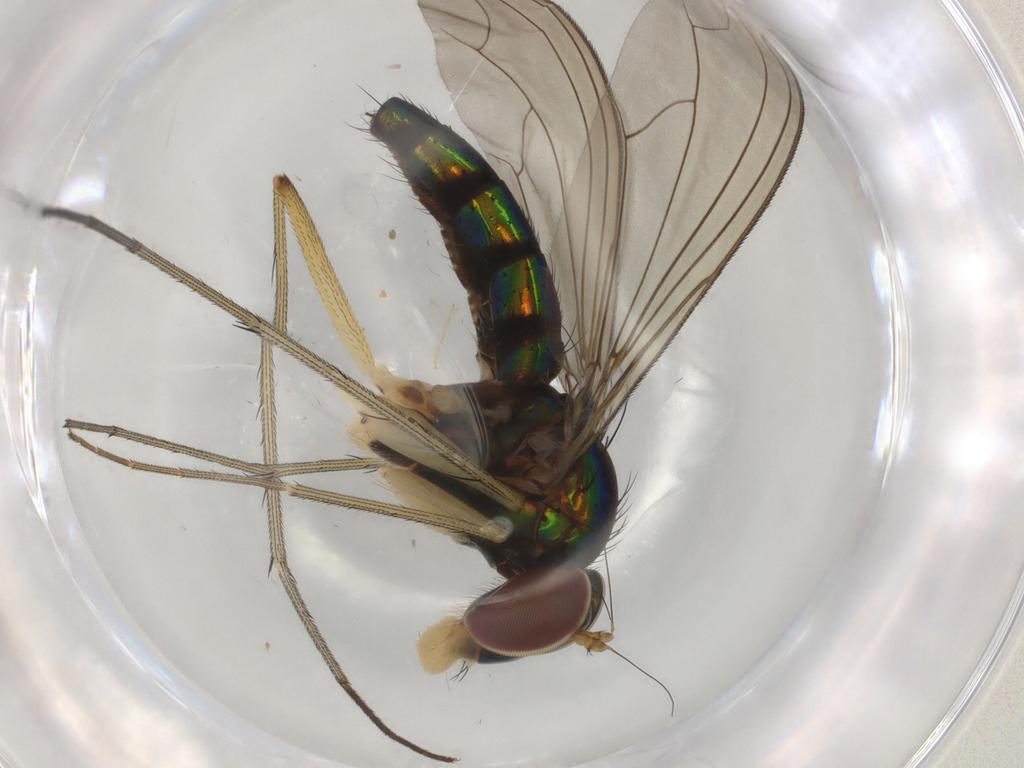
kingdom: Animalia
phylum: Arthropoda
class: Insecta
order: Diptera
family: Dolichopodidae
